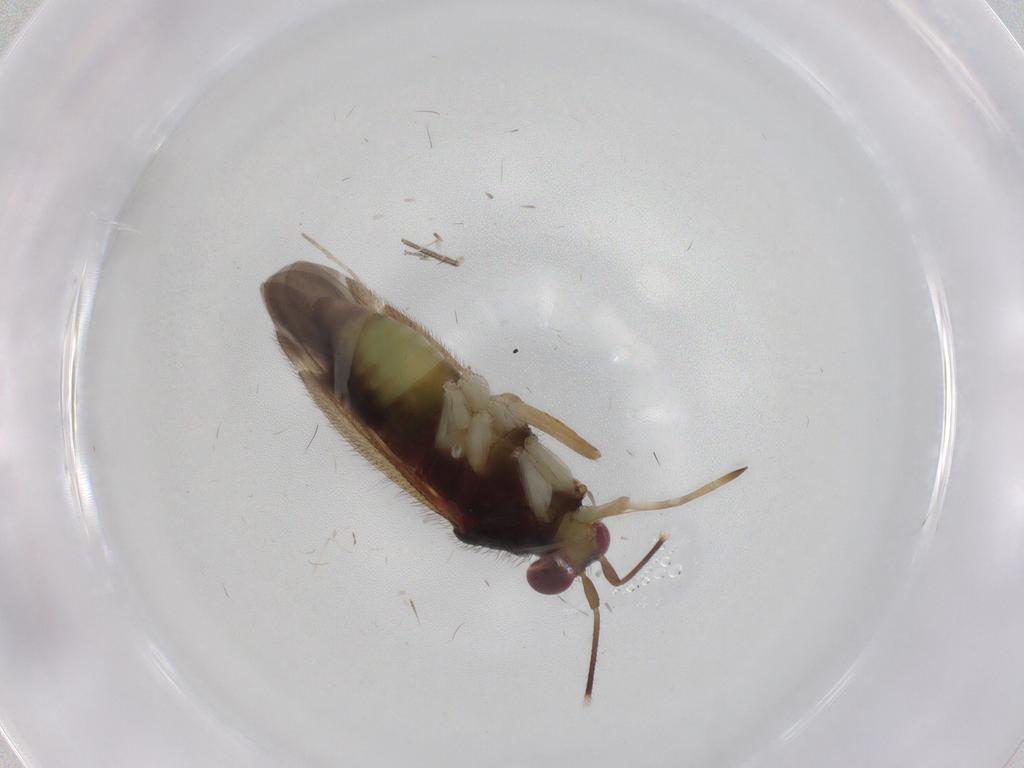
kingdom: Animalia
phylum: Arthropoda
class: Insecta
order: Hemiptera
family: Miridae
